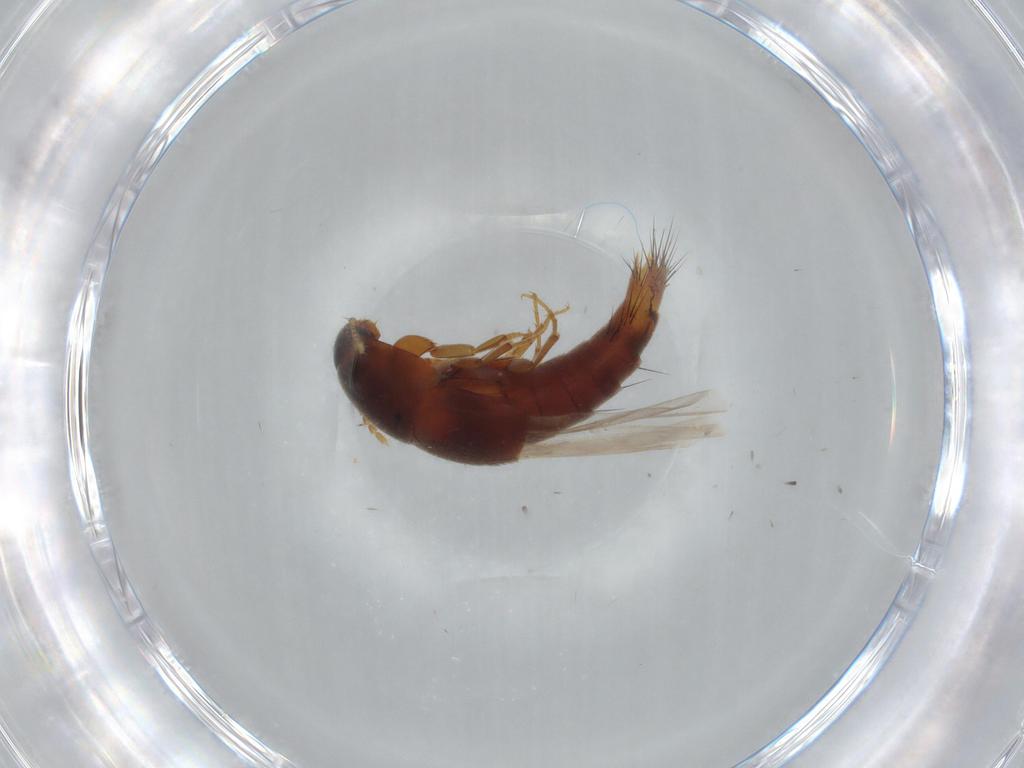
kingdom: Animalia
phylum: Arthropoda
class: Insecta
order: Coleoptera
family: Staphylinidae
